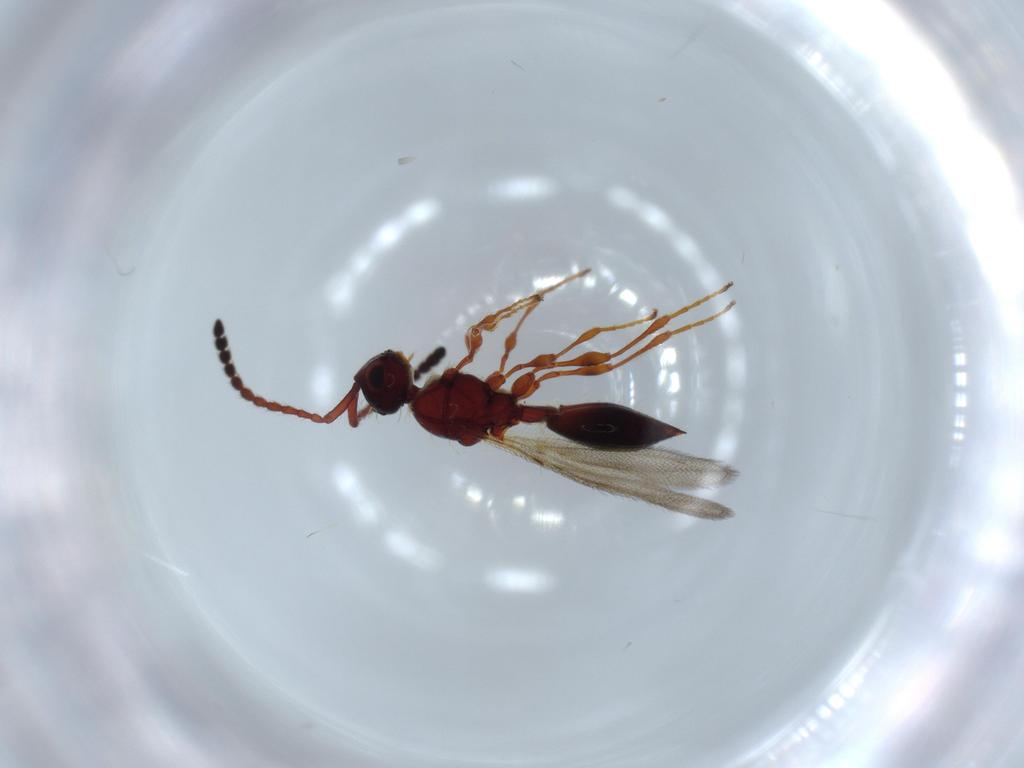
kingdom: Animalia
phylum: Arthropoda
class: Insecta
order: Hymenoptera
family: Diapriidae
